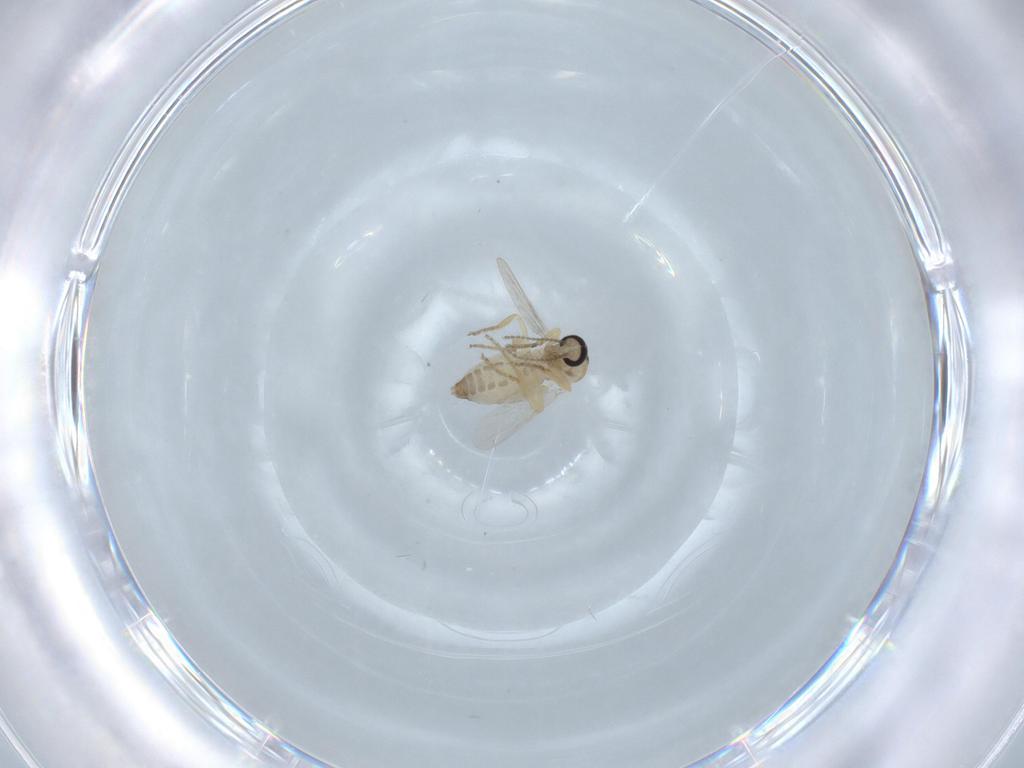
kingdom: Animalia
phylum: Arthropoda
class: Insecta
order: Diptera
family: Ceratopogonidae
